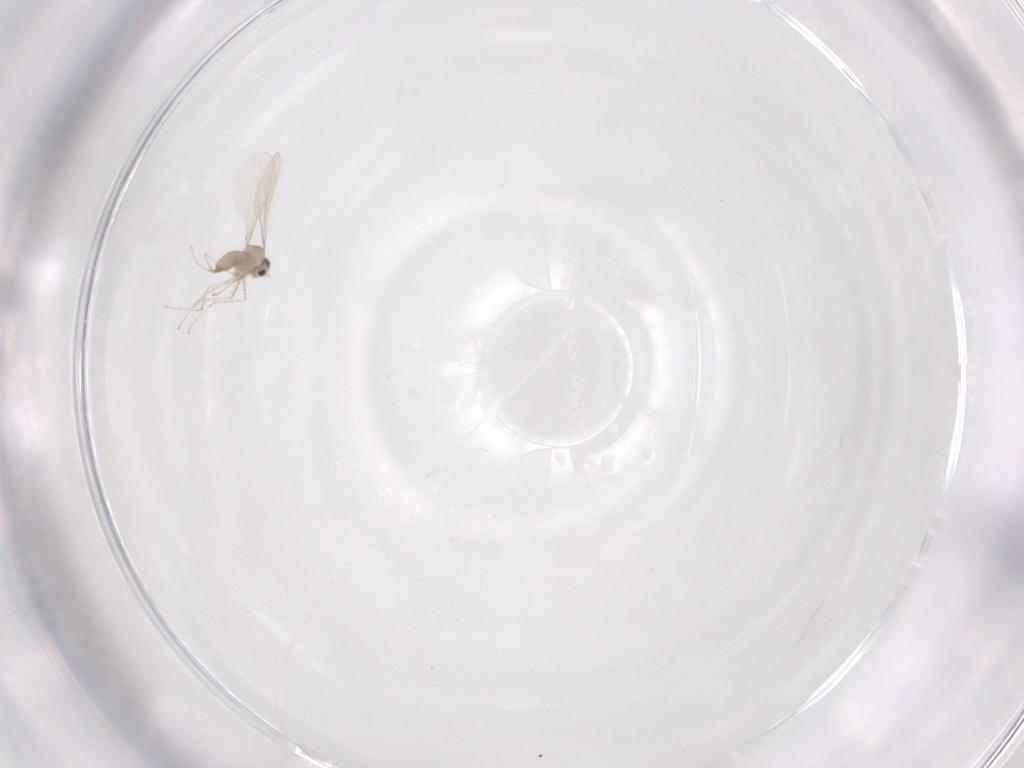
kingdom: Animalia
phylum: Arthropoda
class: Insecta
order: Diptera
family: Cecidomyiidae
